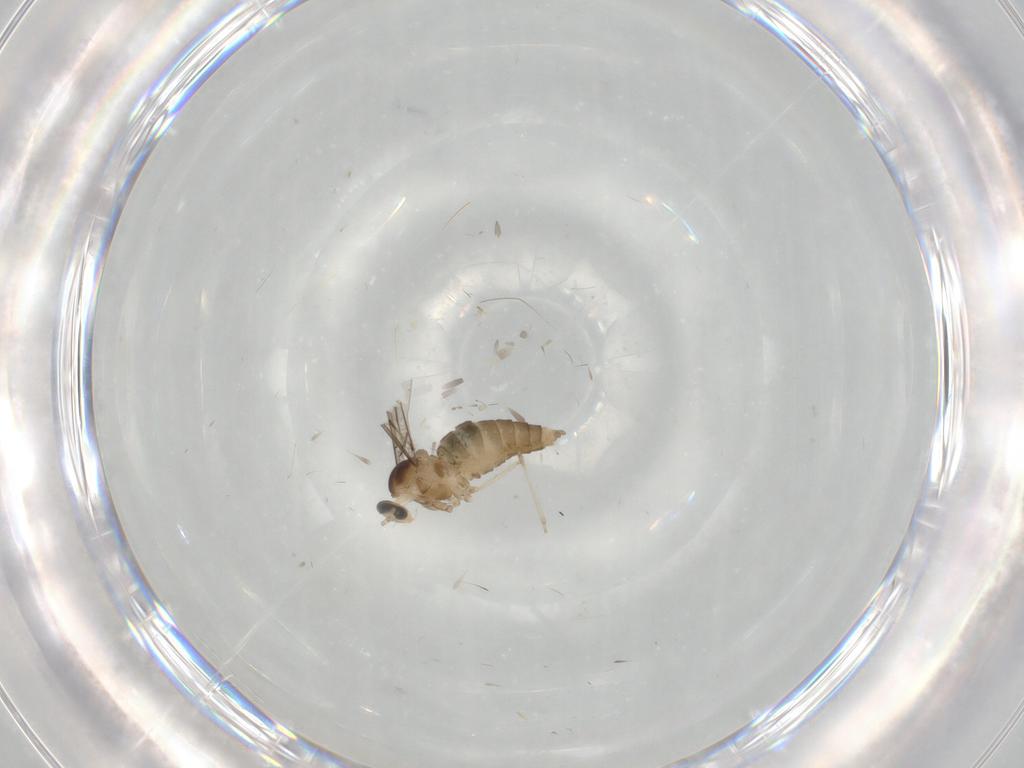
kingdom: Animalia
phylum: Arthropoda
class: Insecta
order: Diptera
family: Cecidomyiidae
